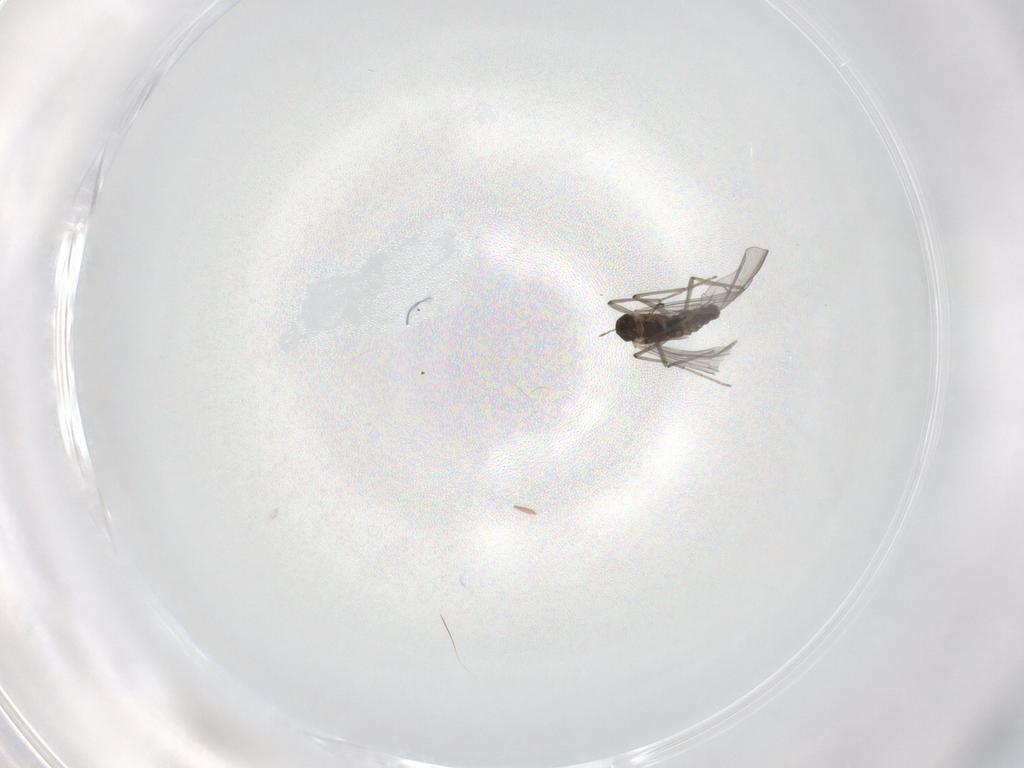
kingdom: Animalia
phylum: Arthropoda
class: Insecta
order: Diptera
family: Chironomidae
